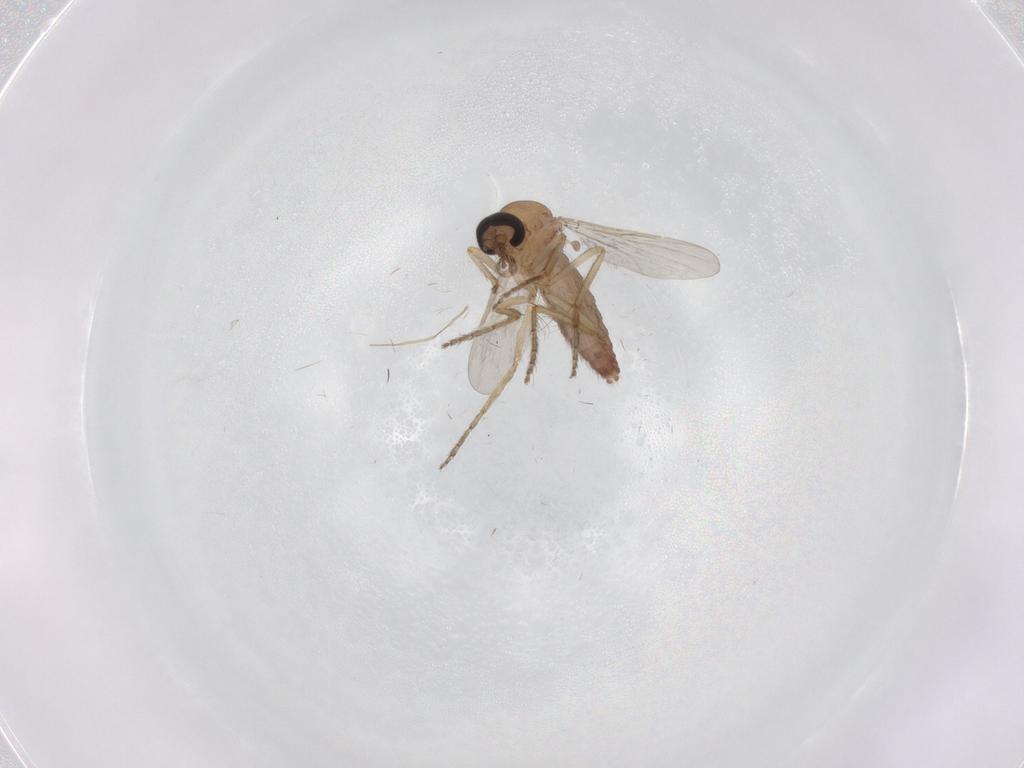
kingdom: Animalia
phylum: Arthropoda
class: Insecta
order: Diptera
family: Ceratopogonidae
